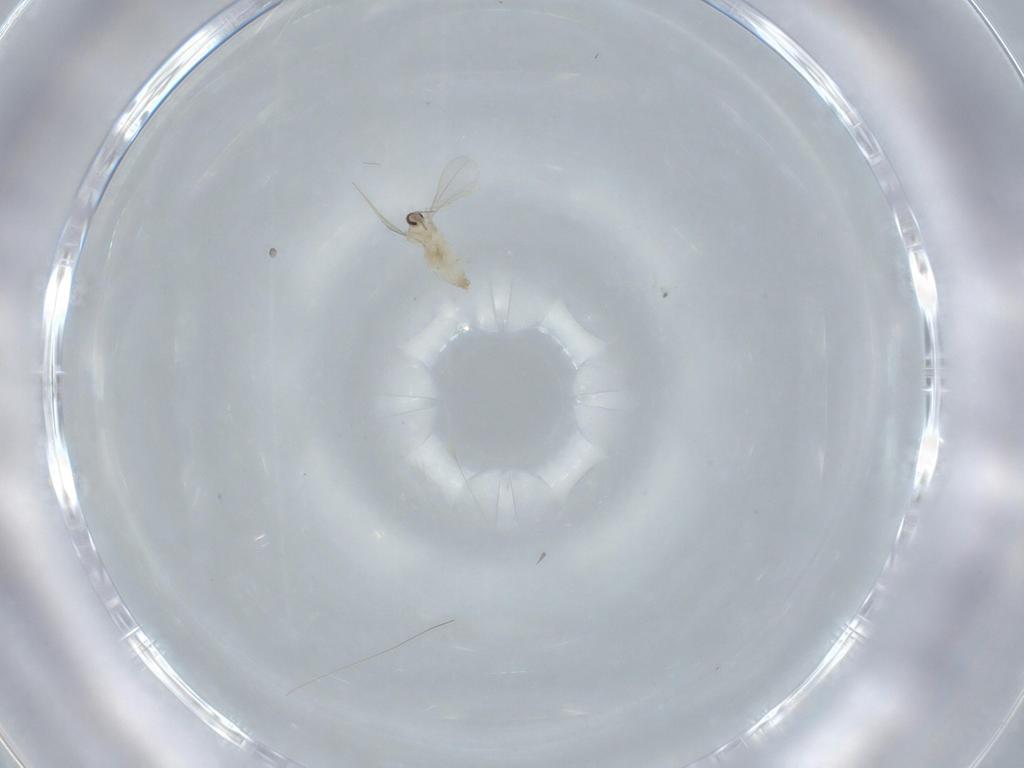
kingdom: Animalia
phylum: Arthropoda
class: Insecta
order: Diptera
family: Cecidomyiidae
